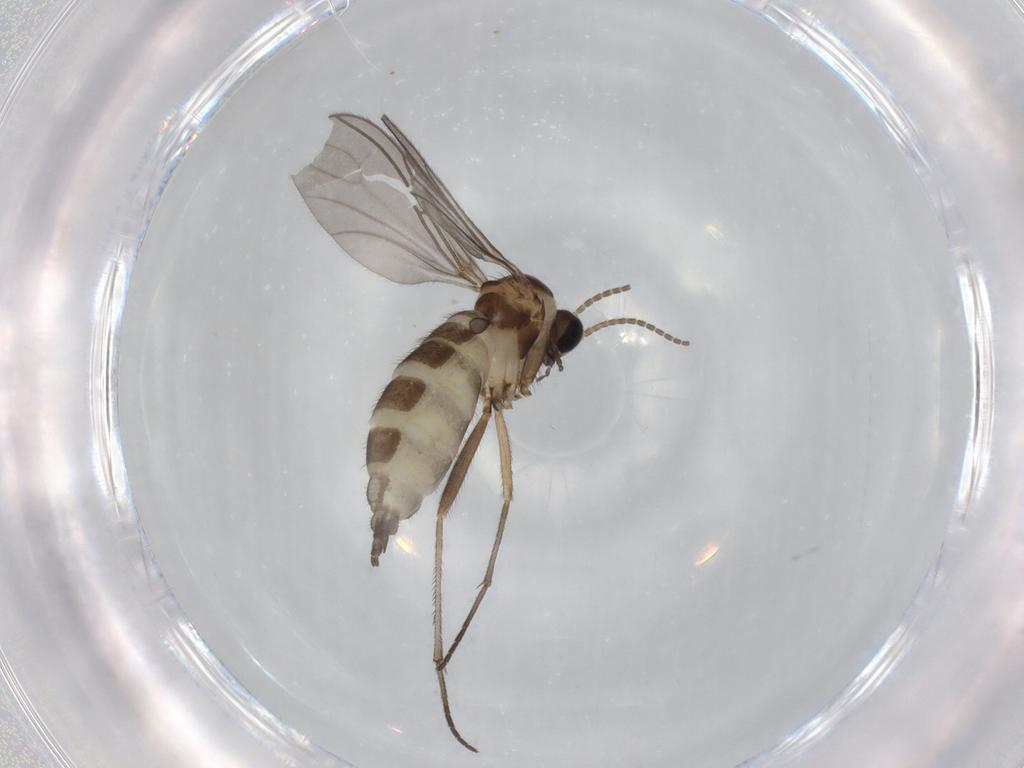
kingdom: Animalia
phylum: Arthropoda
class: Insecta
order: Diptera
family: Sciaridae
